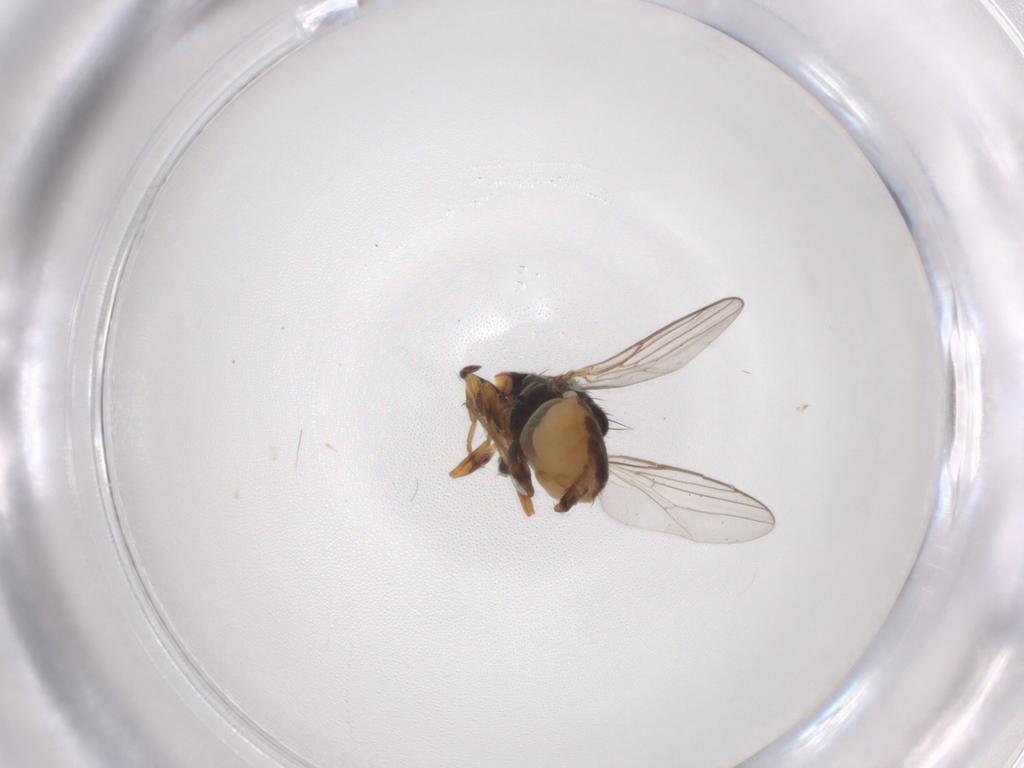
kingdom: Animalia
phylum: Arthropoda
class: Insecta
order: Diptera
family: Chloropidae
